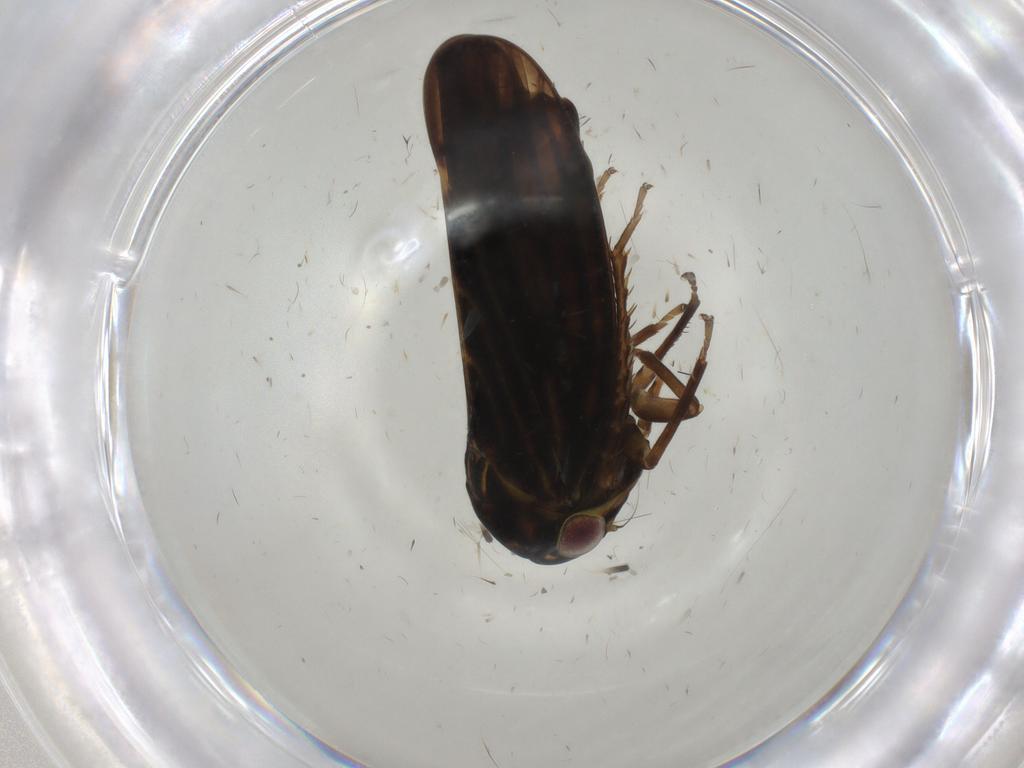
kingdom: Animalia
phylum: Arthropoda
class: Insecta
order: Hemiptera
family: Cicadellidae
